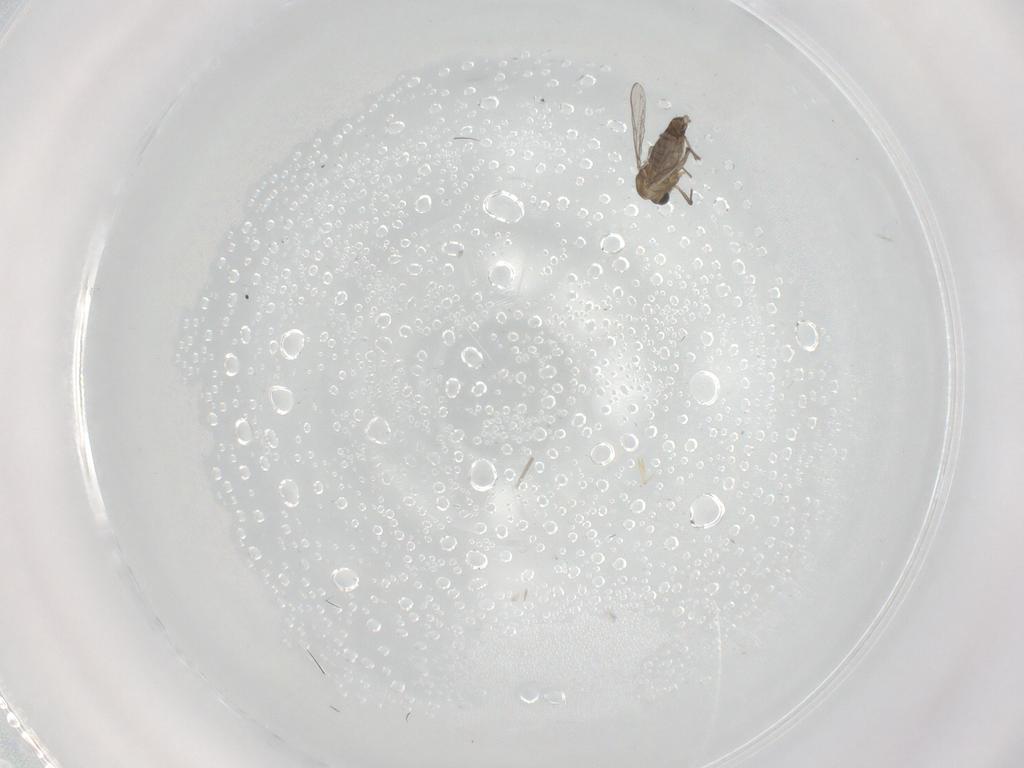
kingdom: Animalia
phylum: Arthropoda
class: Insecta
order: Diptera
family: Chironomidae
